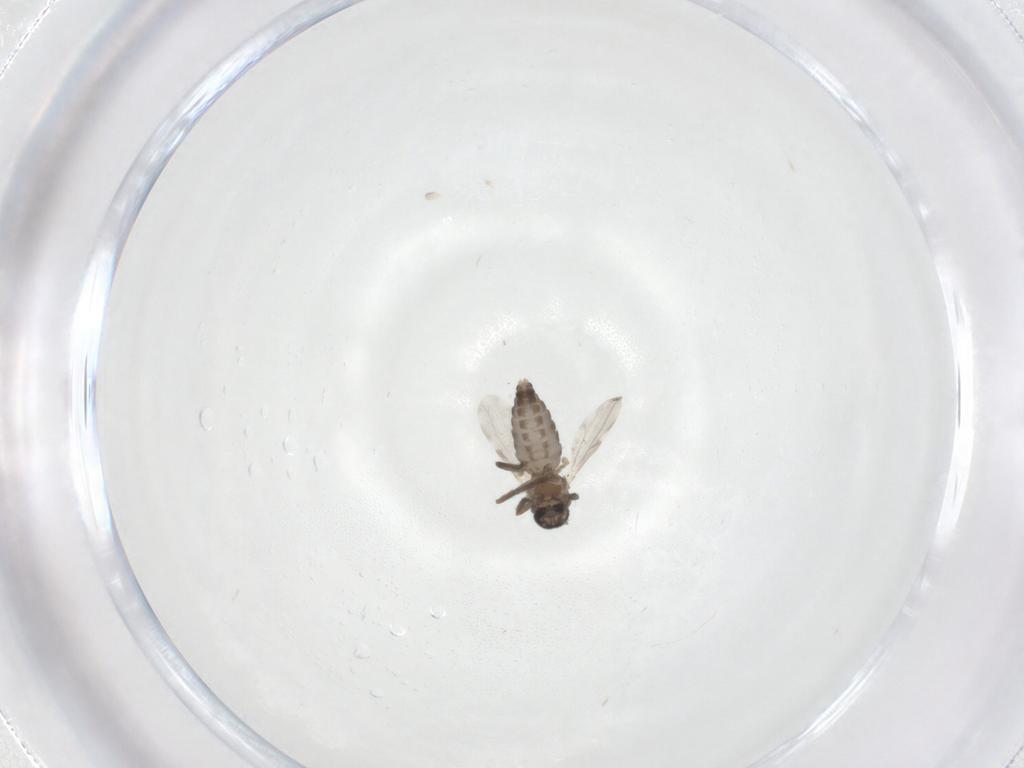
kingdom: Animalia
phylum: Arthropoda
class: Insecta
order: Diptera
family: Ceratopogonidae
